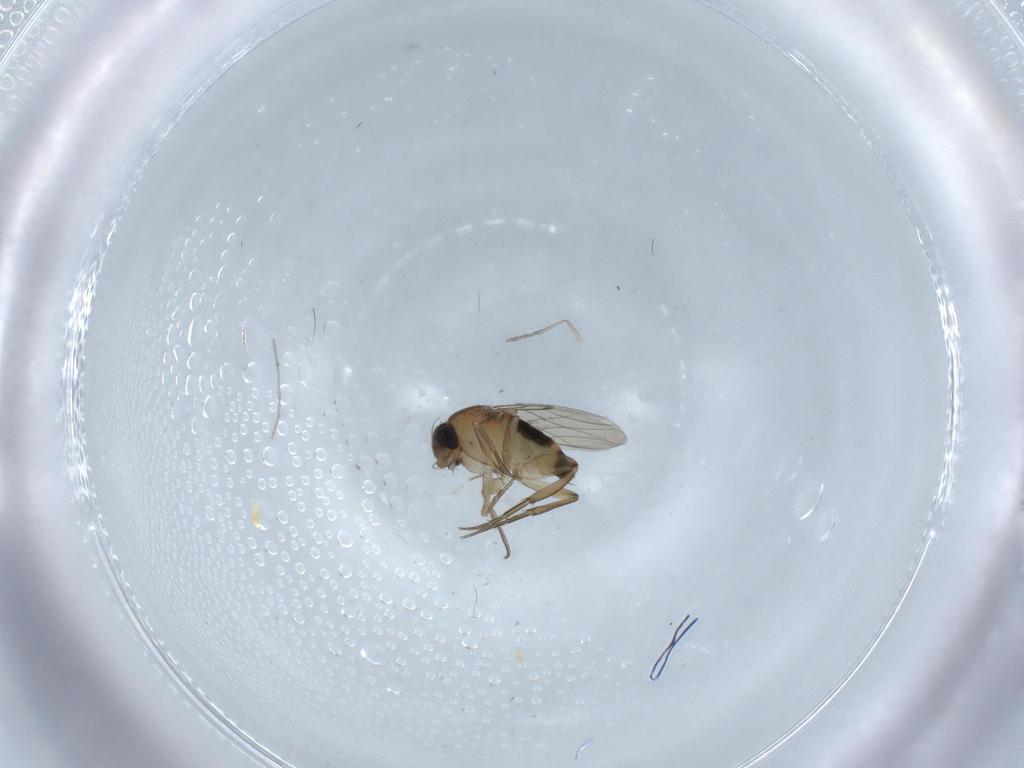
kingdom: Animalia
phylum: Arthropoda
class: Insecta
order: Diptera
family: Phoridae
